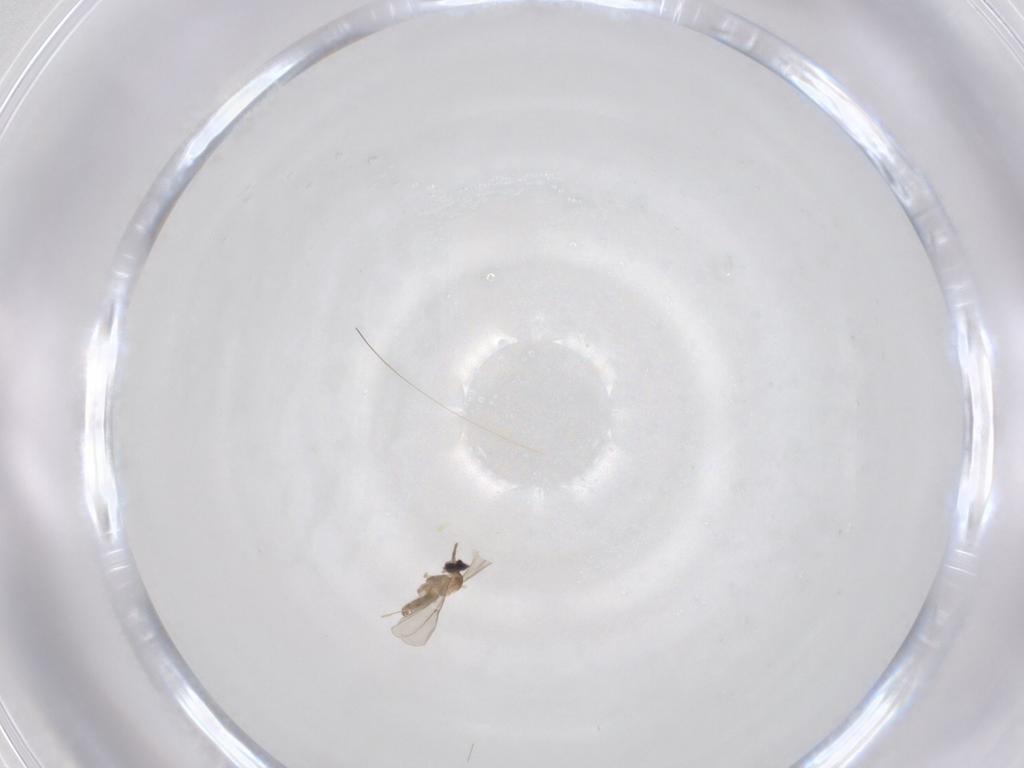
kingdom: Animalia
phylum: Arthropoda
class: Insecta
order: Diptera
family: Cecidomyiidae
